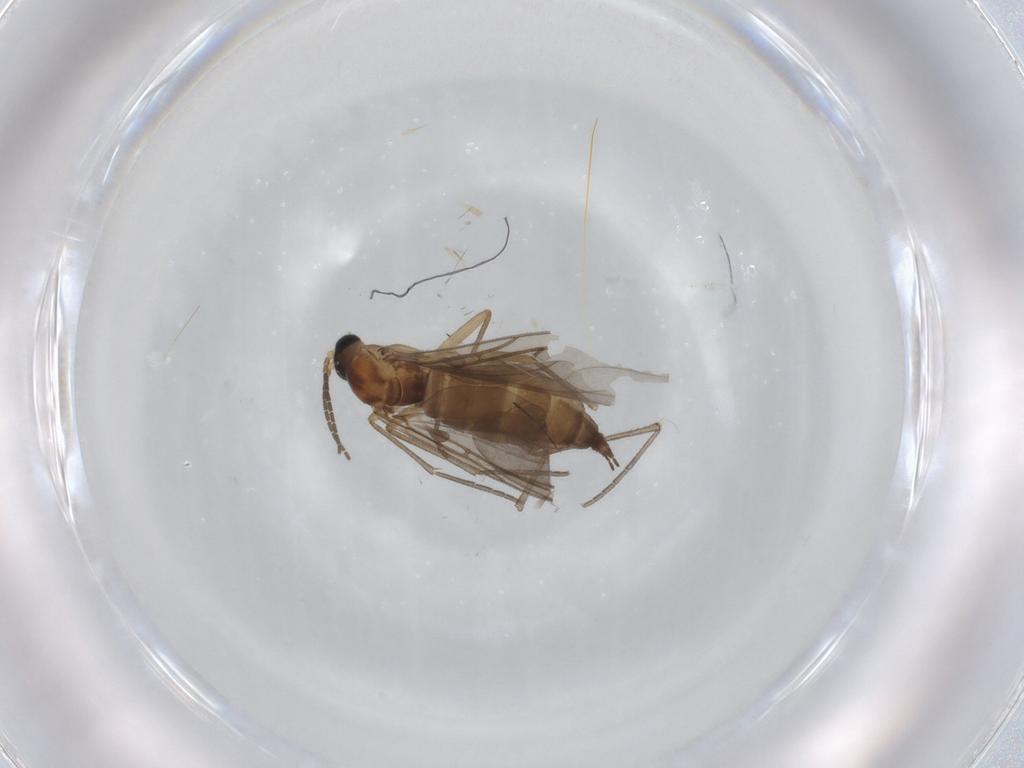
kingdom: Animalia
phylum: Arthropoda
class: Insecta
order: Diptera
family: Sciaridae
